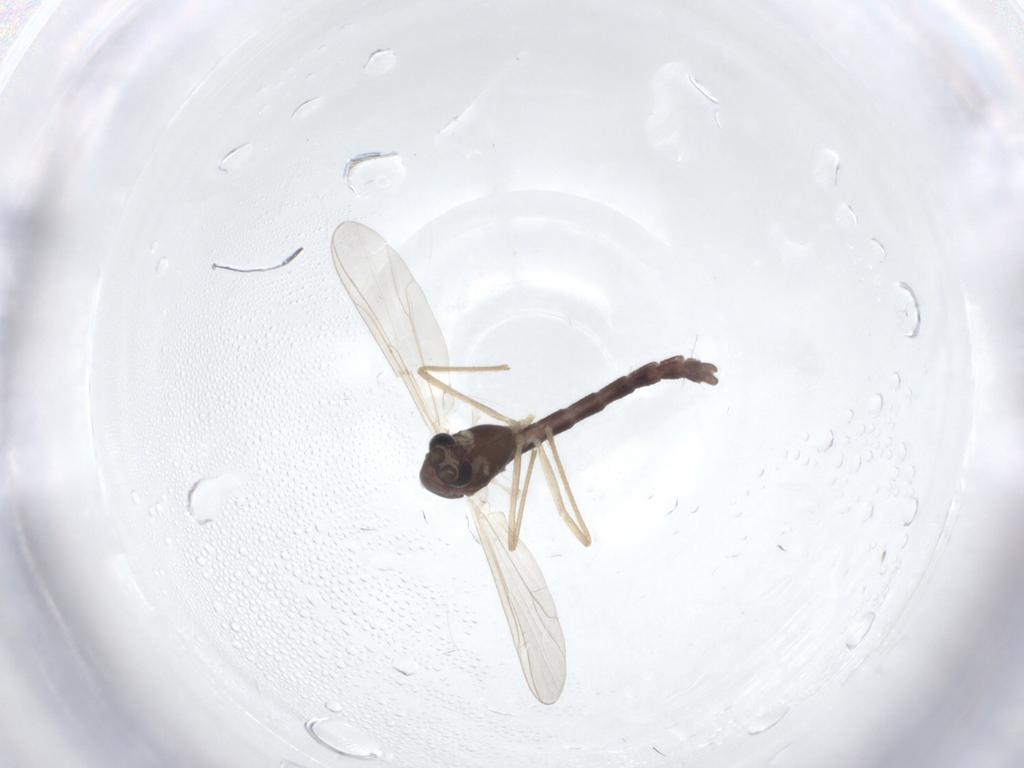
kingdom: Animalia
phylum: Arthropoda
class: Insecta
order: Diptera
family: Chironomidae
